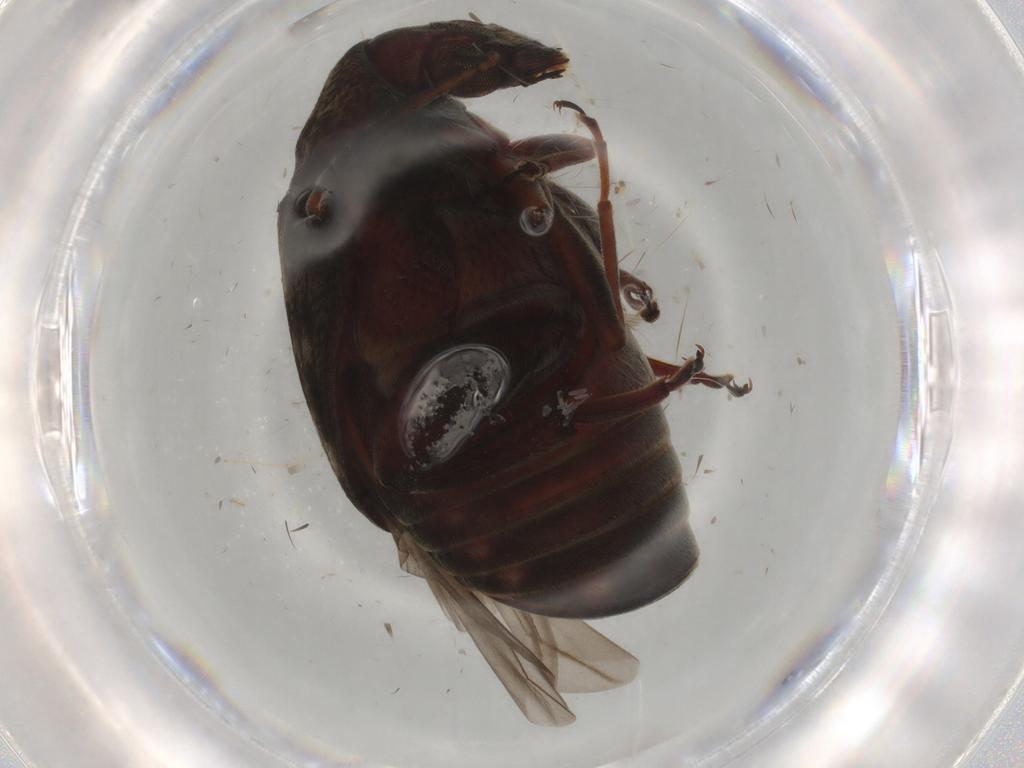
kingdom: Animalia
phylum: Arthropoda
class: Insecta
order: Coleoptera
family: Chrysomelidae
